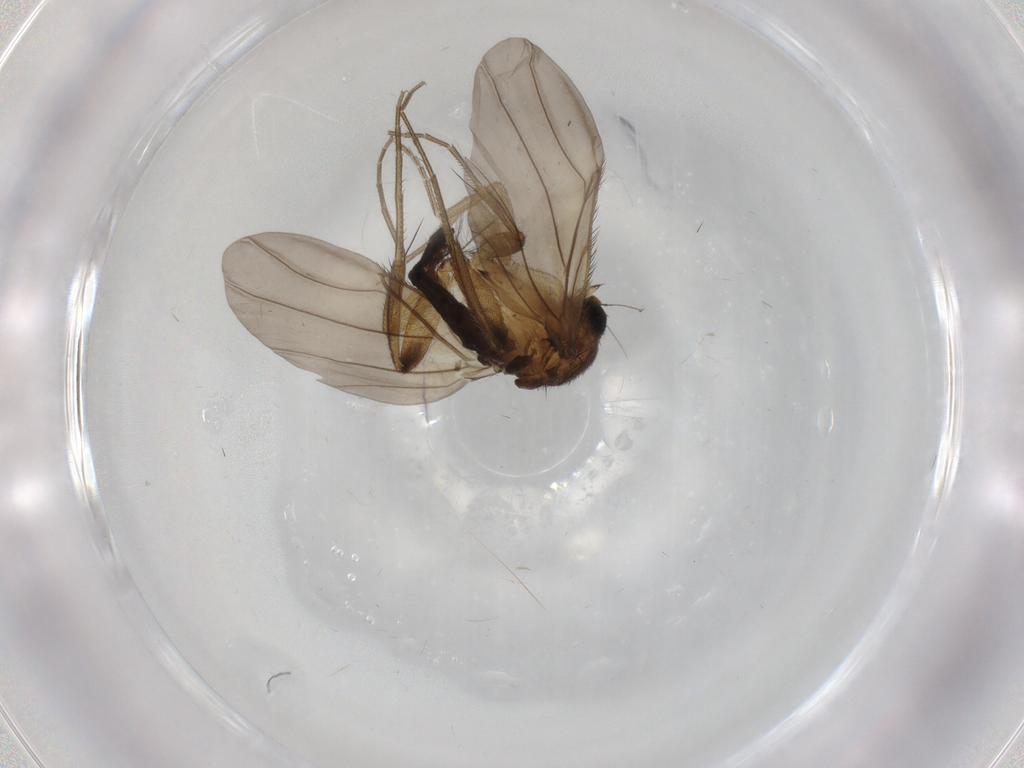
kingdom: Animalia
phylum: Arthropoda
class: Insecta
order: Diptera
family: Phoridae
